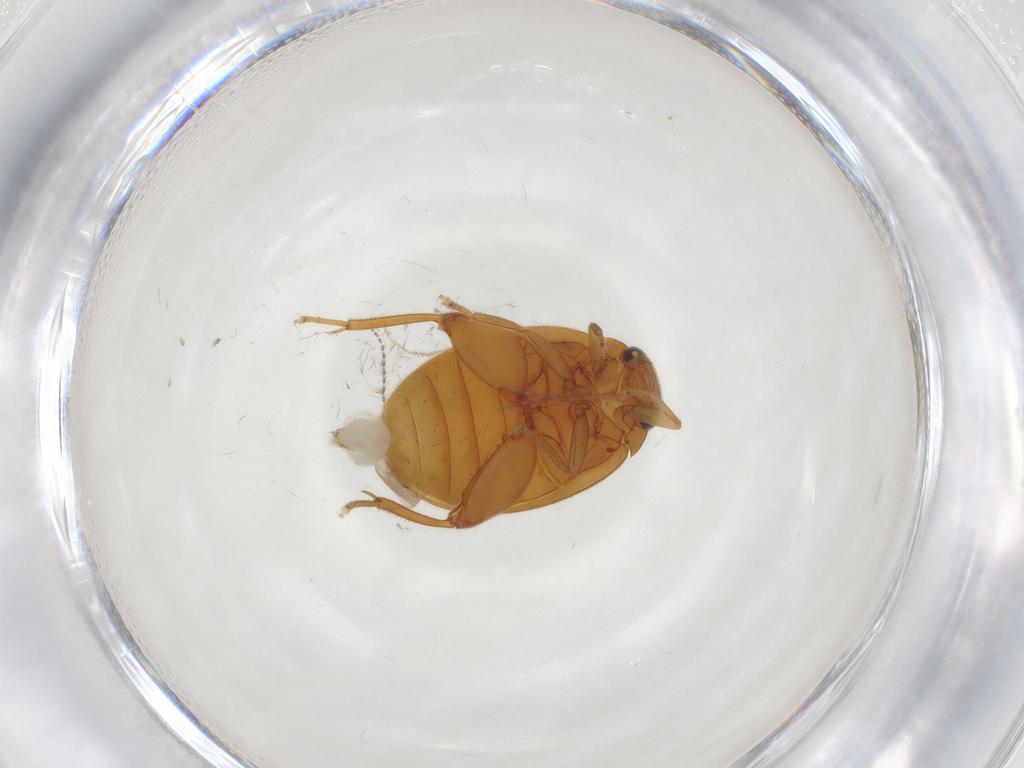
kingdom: Animalia
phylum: Arthropoda
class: Insecta
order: Coleoptera
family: Scirtidae
